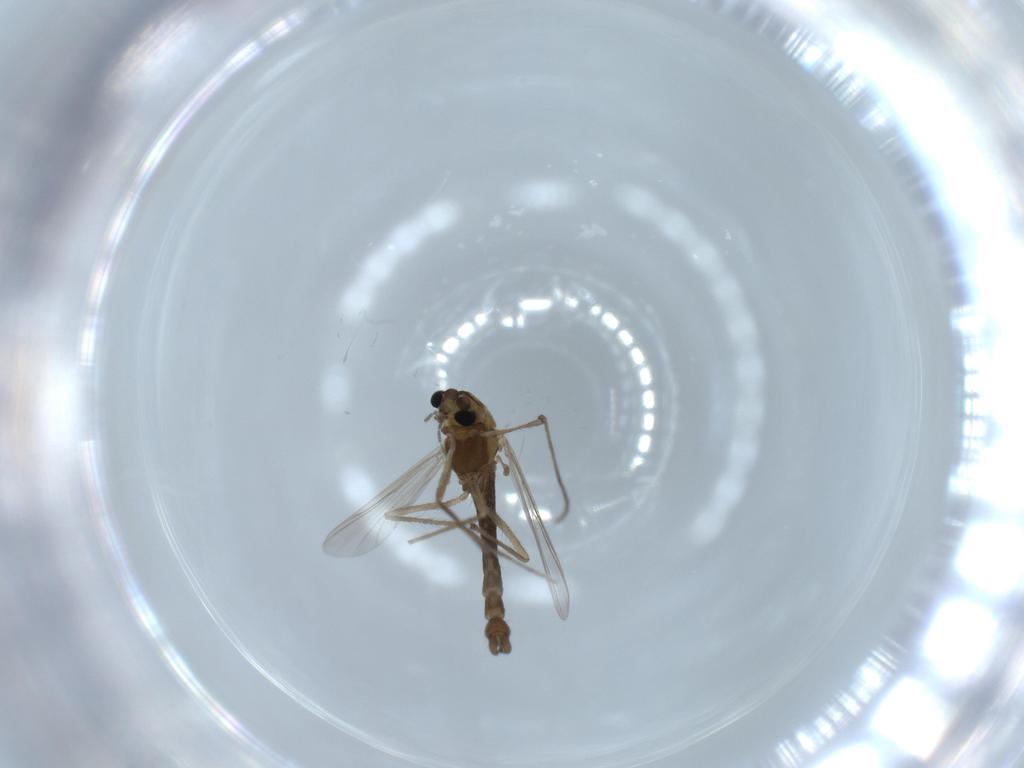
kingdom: Animalia
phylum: Arthropoda
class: Insecta
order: Diptera
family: Chironomidae
